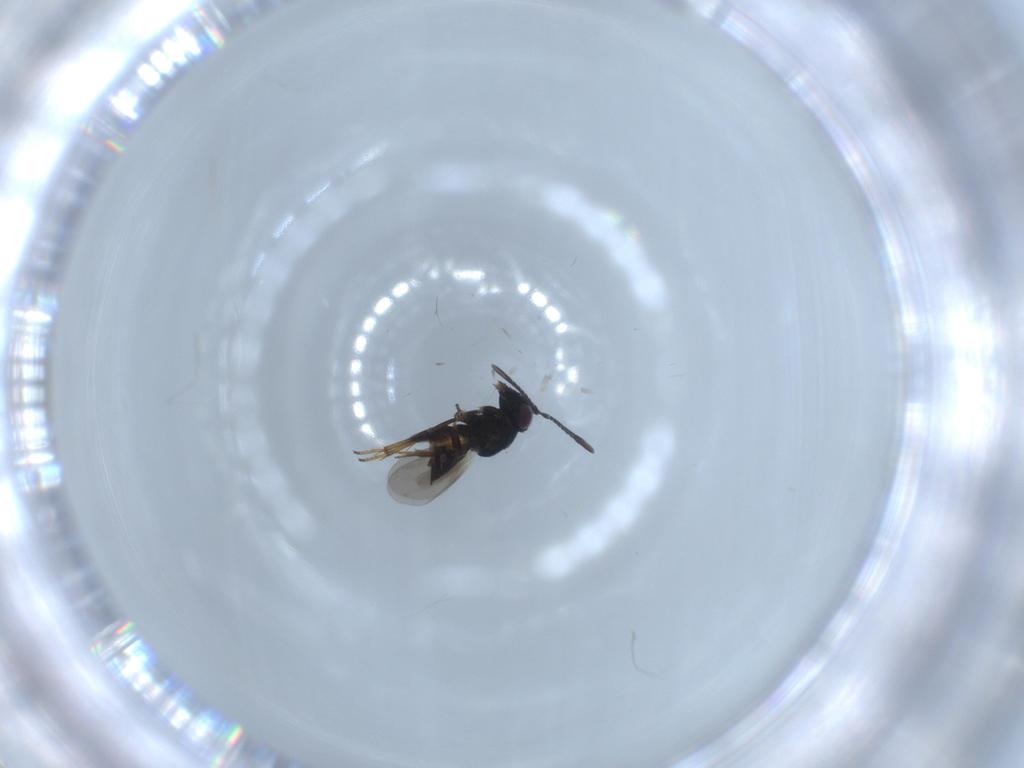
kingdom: Animalia
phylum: Arthropoda
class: Insecta
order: Hymenoptera
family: Encyrtidae
